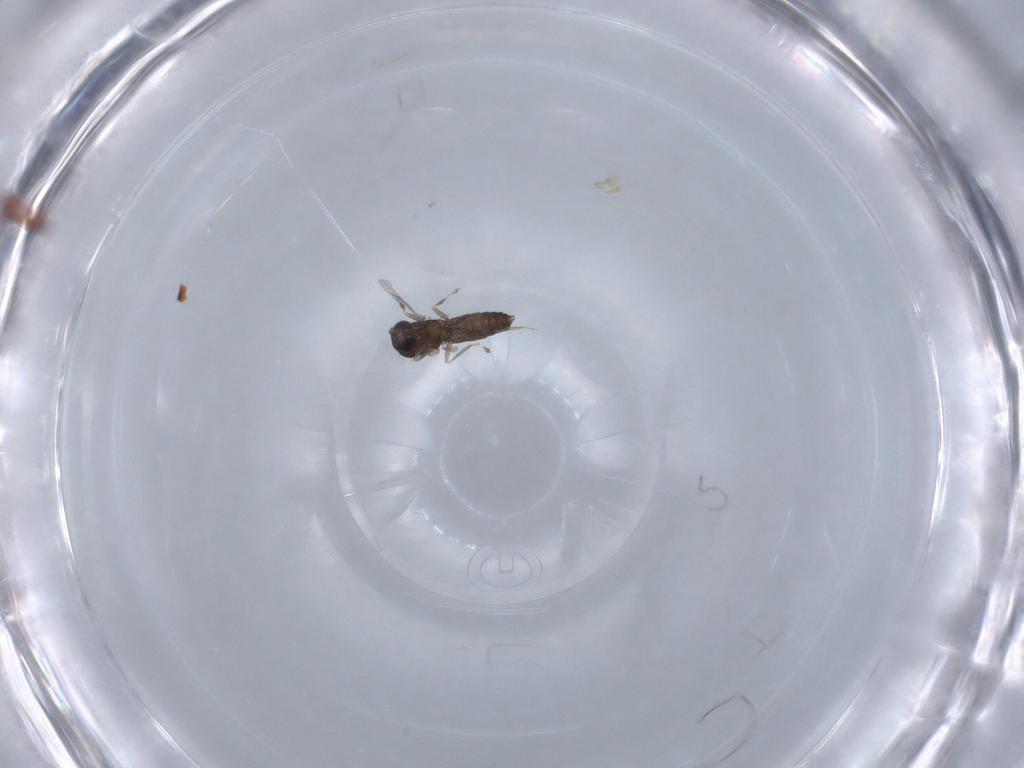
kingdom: Animalia
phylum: Arthropoda
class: Insecta
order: Diptera
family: Ceratopogonidae
